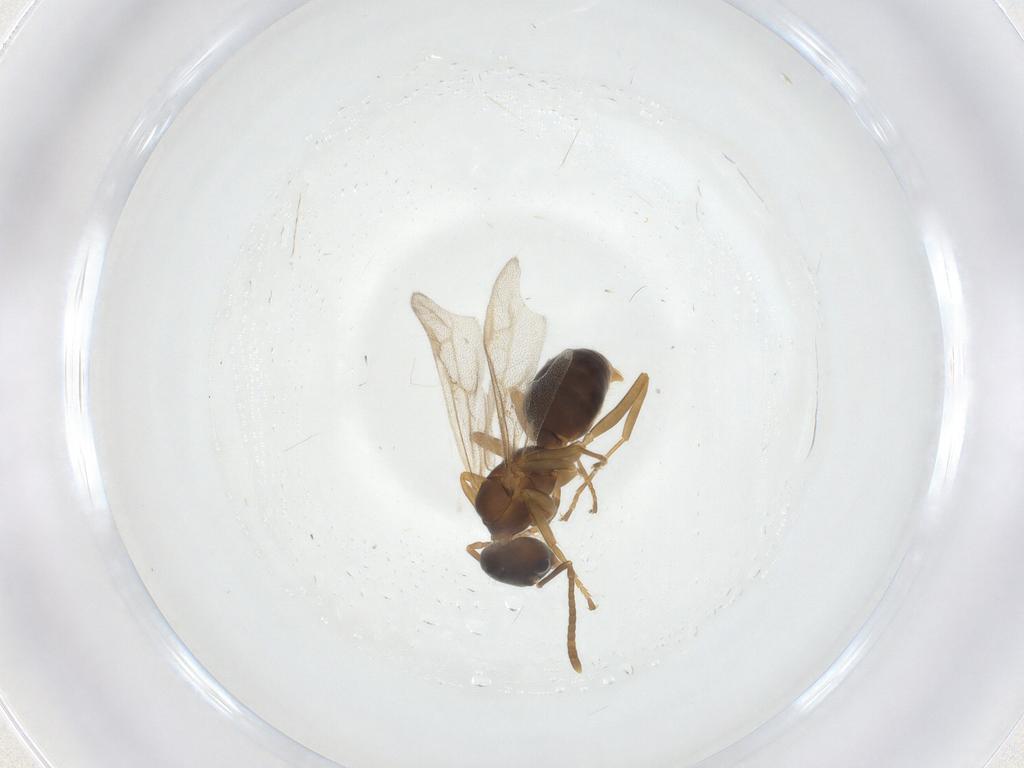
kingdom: Animalia
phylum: Arthropoda
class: Insecta
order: Hymenoptera
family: Formicidae
